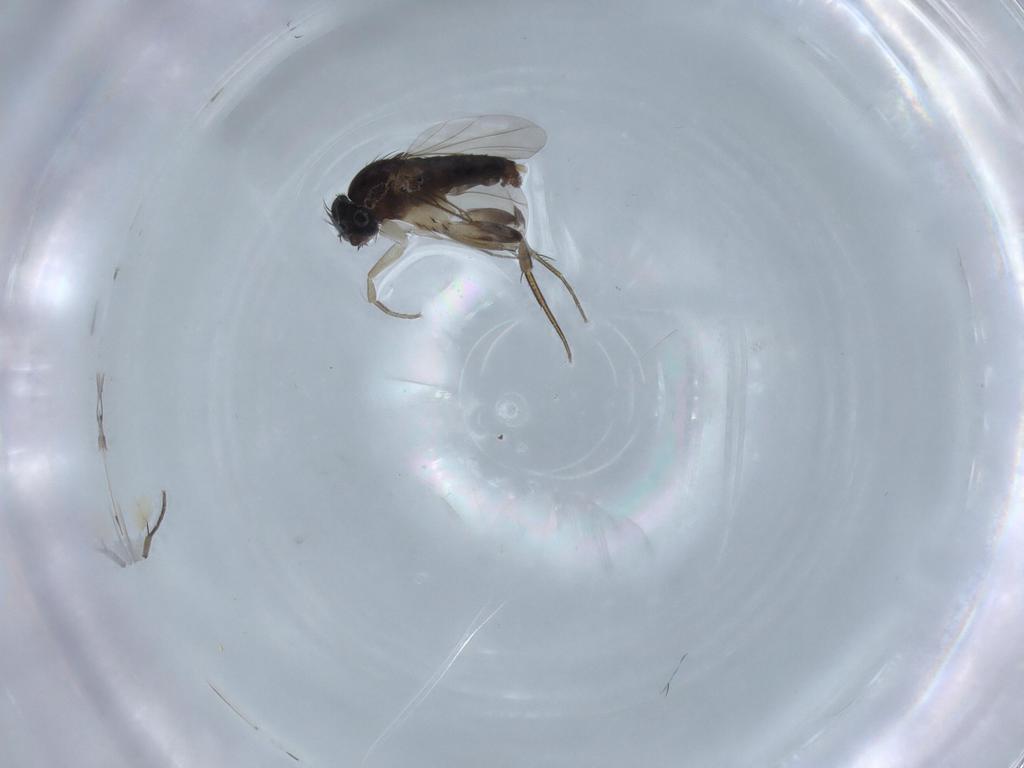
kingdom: Animalia
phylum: Arthropoda
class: Insecta
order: Diptera
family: Dolichopodidae
